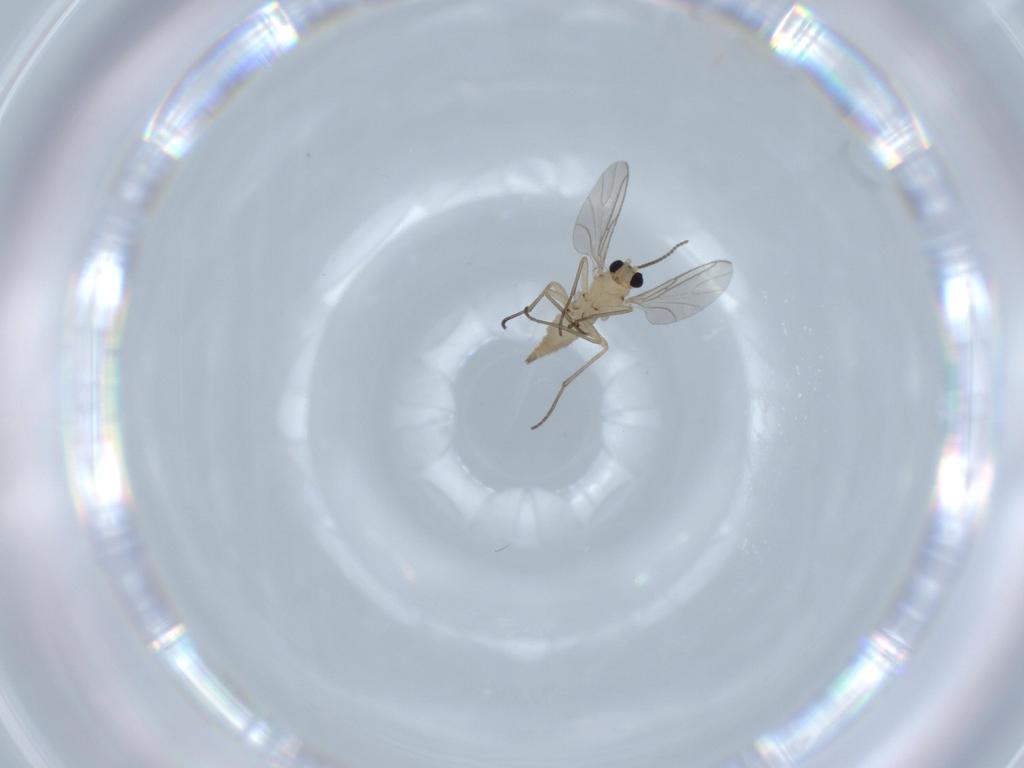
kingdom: Animalia
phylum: Arthropoda
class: Insecta
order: Diptera
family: Sciaridae
